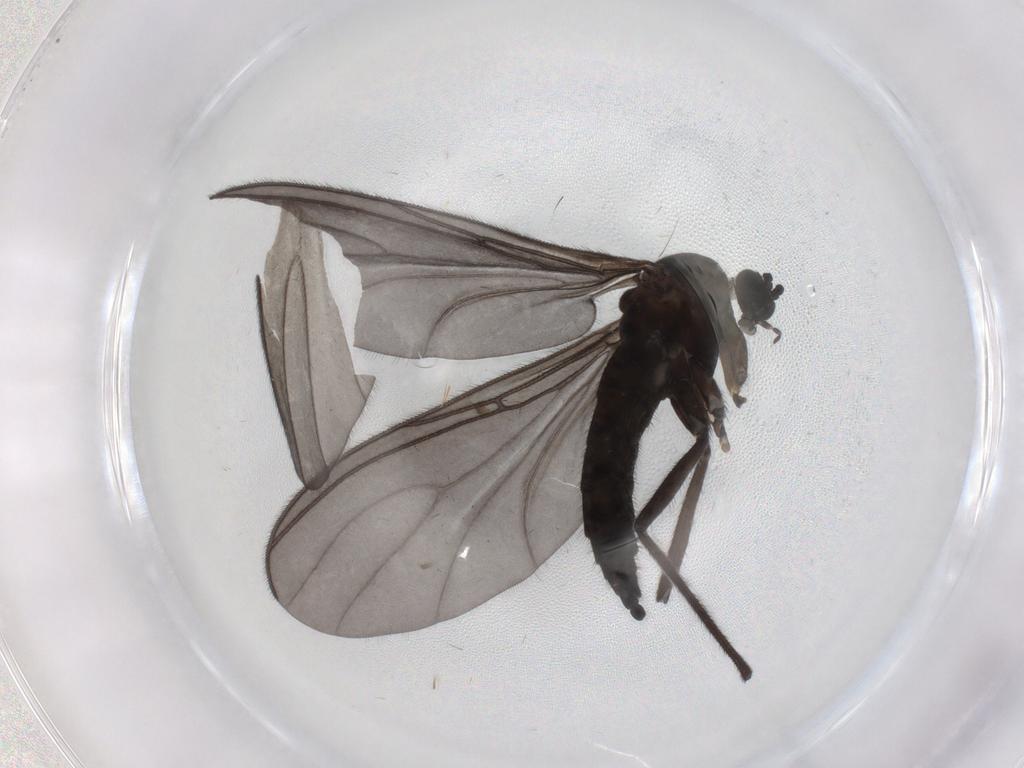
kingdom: Animalia
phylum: Arthropoda
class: Insecta
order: Diptera
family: Sciaridae
